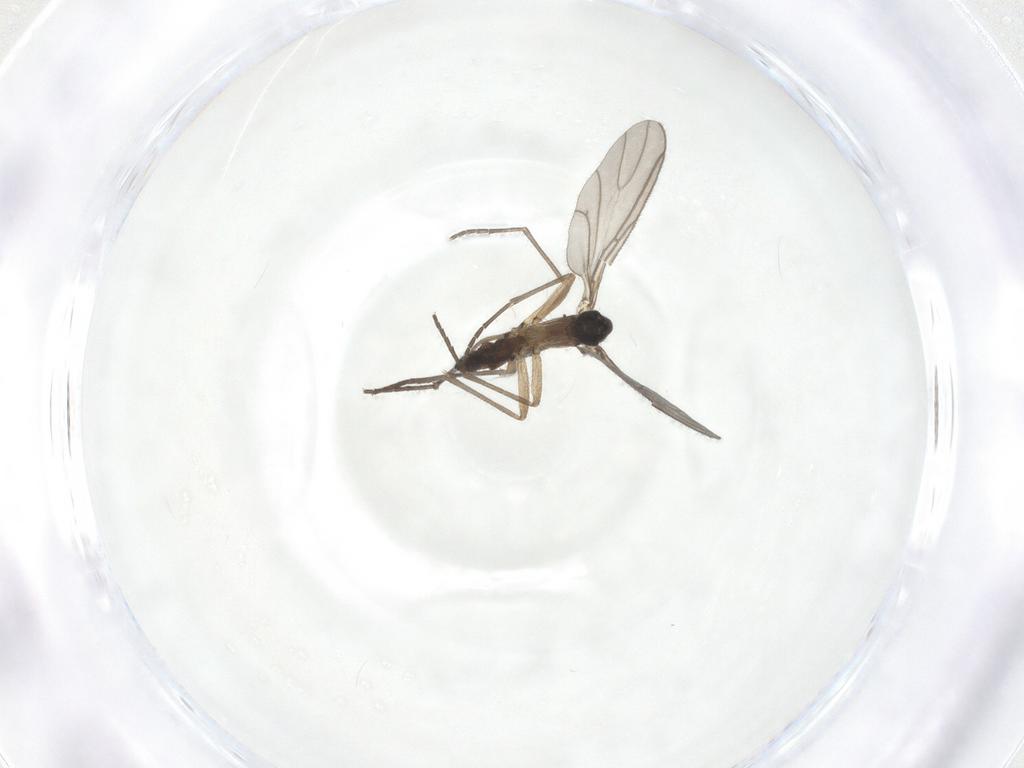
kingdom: Animalia
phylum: Arthropoda
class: Insecta
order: Diptera
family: Sciaridae
